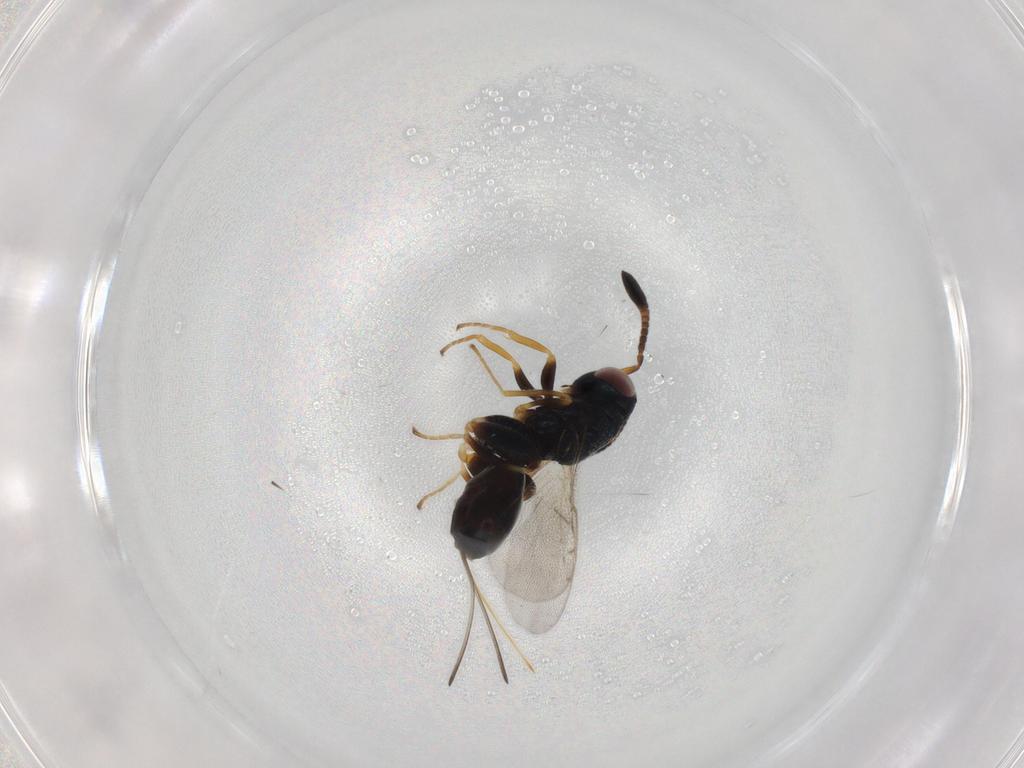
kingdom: Animalia
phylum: Arthropoda
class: Insecta
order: Hymenoptera
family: Torymidae
